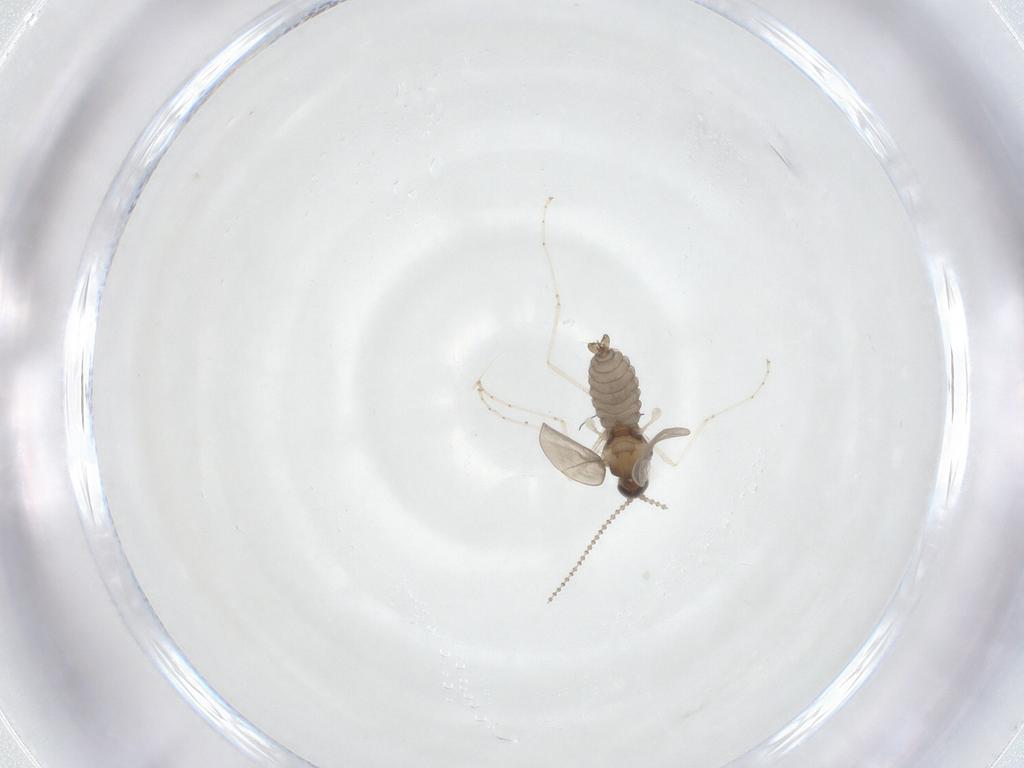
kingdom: Animalia
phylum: Arthropoda
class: Insecta
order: Diptera
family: Cecidomyiidae
